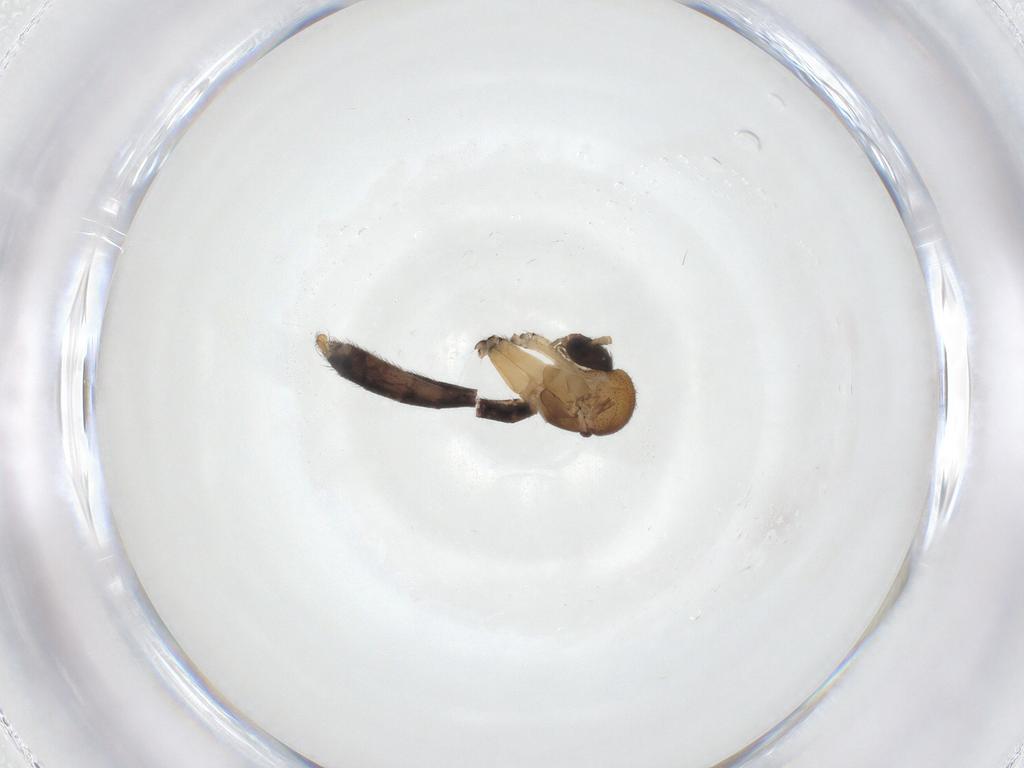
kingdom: Animalia
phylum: Arthropoda
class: Insecta
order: Diptera
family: Mycetophilidae
